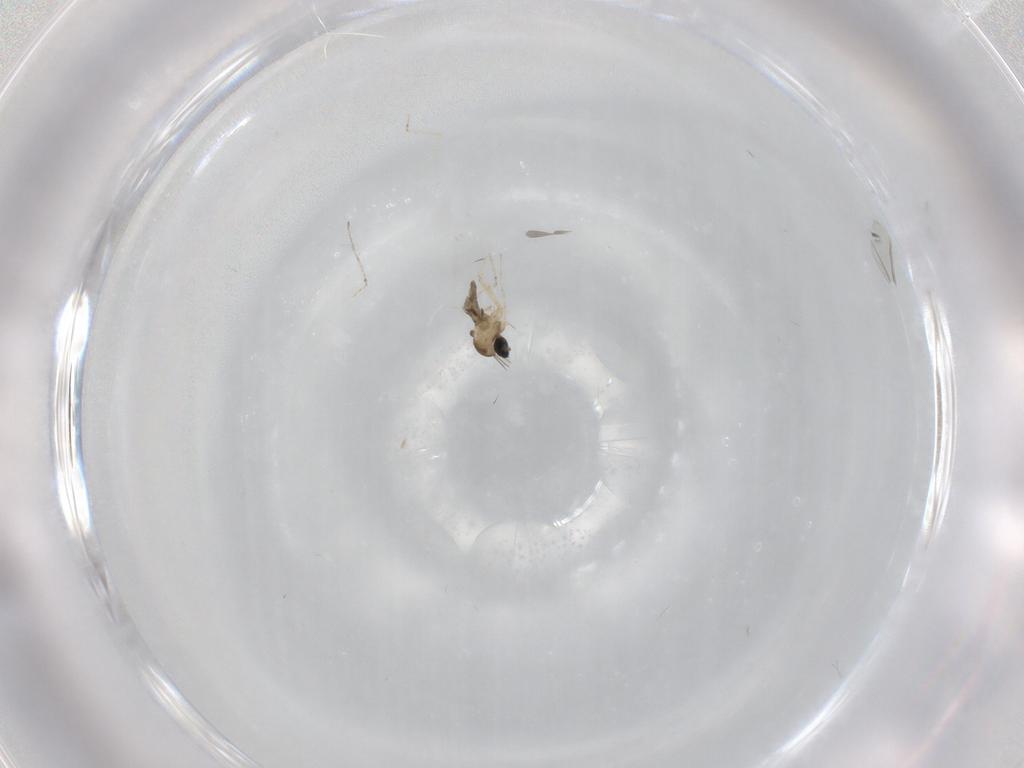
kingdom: Animalia
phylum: Arthropoda
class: Insecta
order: Diptera
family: Cecidomyiidae
